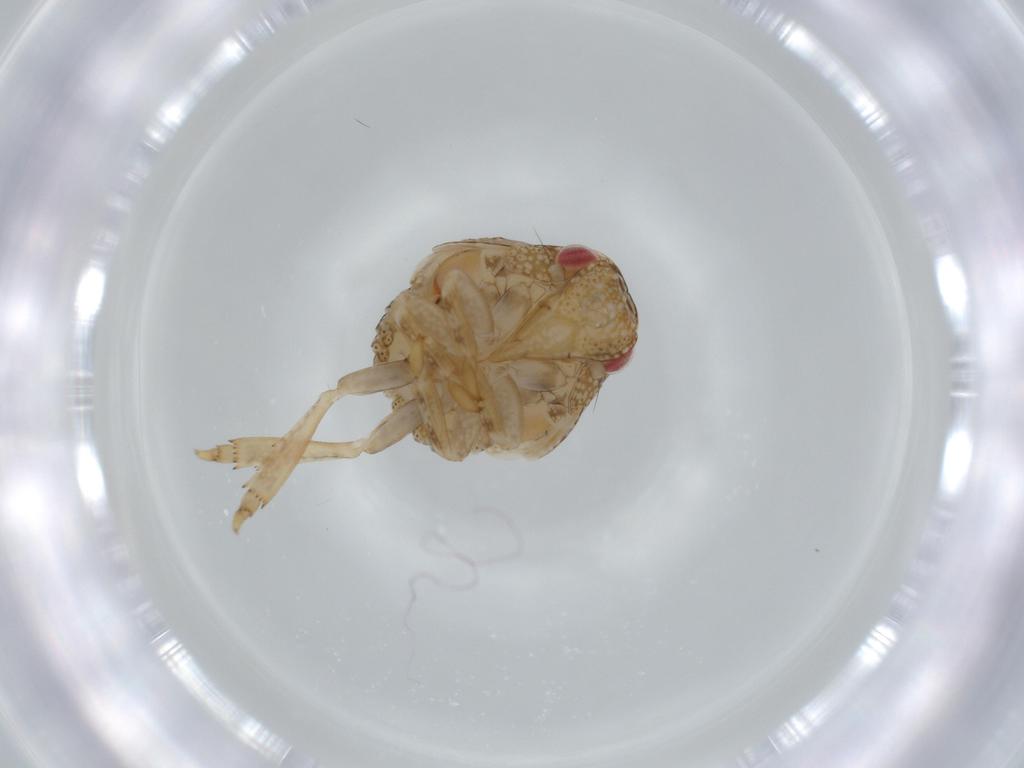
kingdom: Animalia
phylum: Arthropoda
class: Insecta
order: Hemiptera
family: Acanaloniidae
